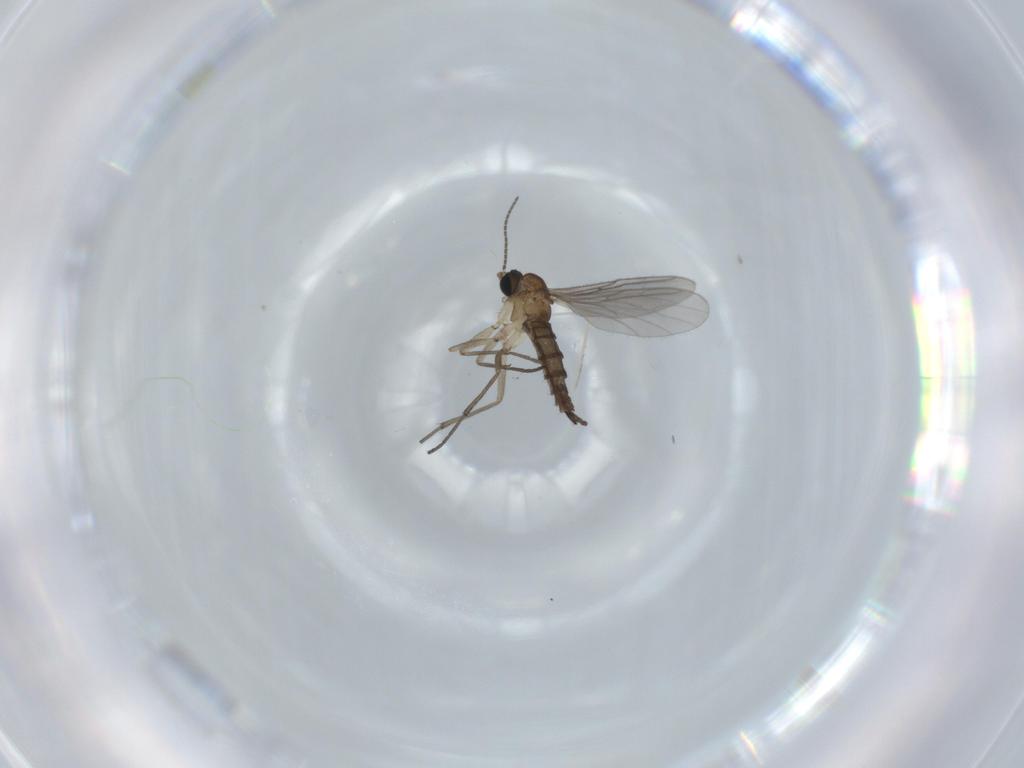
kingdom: Animalia
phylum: Arthropoda
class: Insecta
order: Diptera
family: Sciaridae
